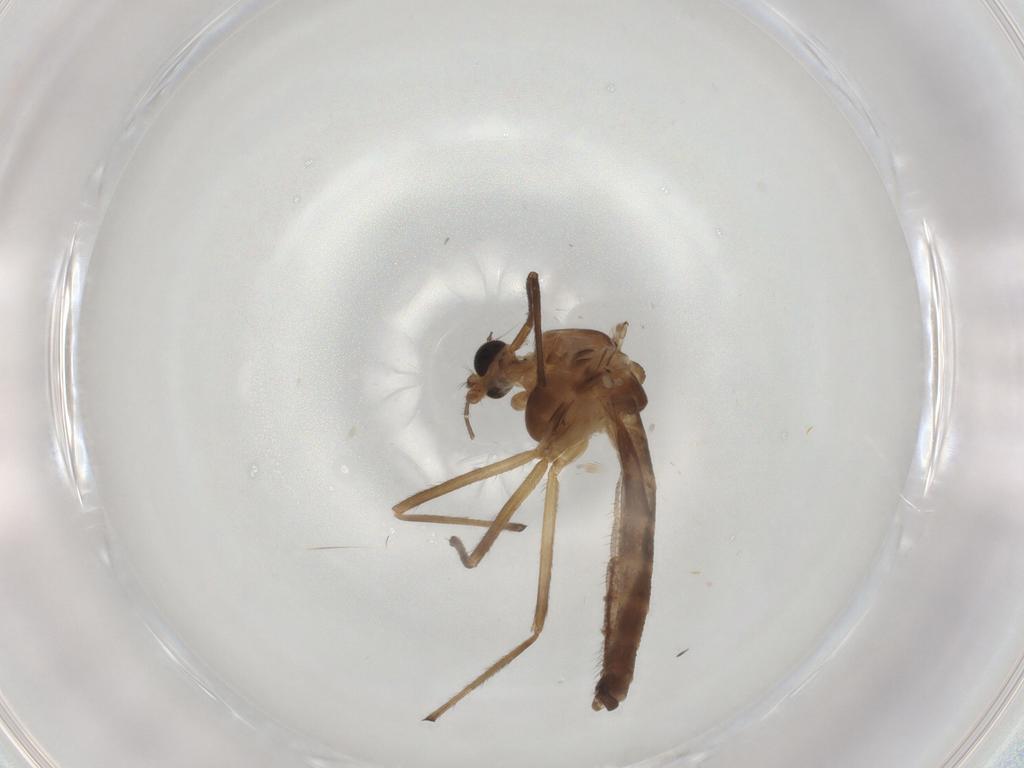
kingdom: Animalia
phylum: Arthropoda
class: Insecta
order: Diptera
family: Chironomidae
